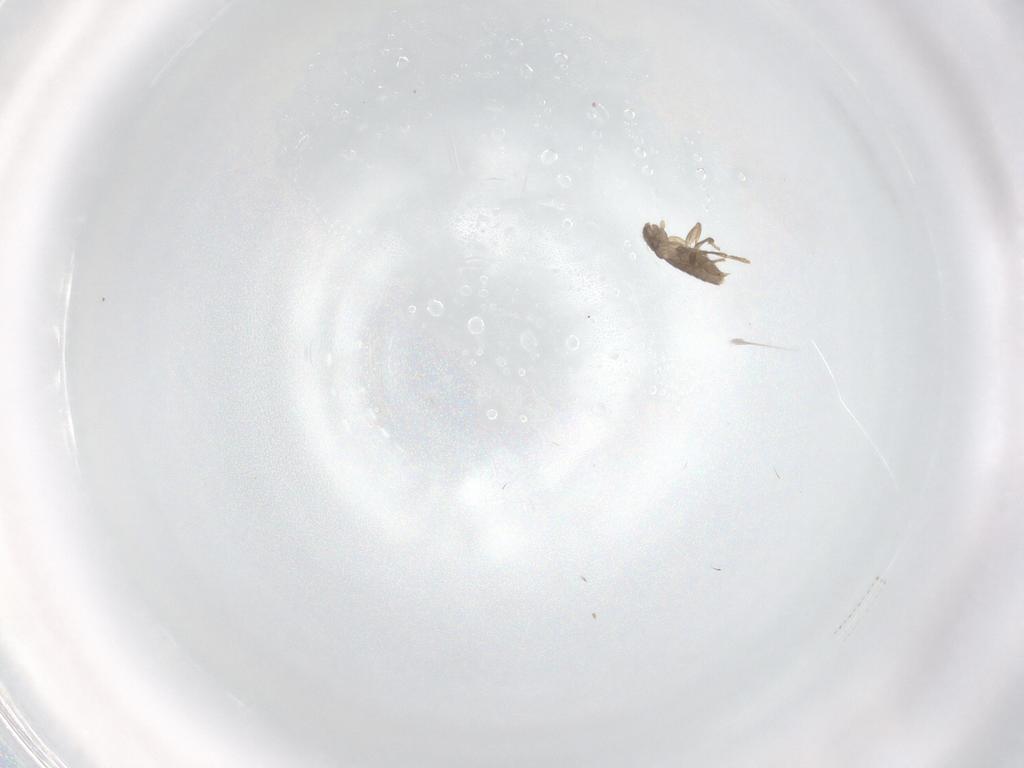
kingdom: Animalia
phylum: Arthropoda
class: Insecta
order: Diptera
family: Cecidomyiidae
